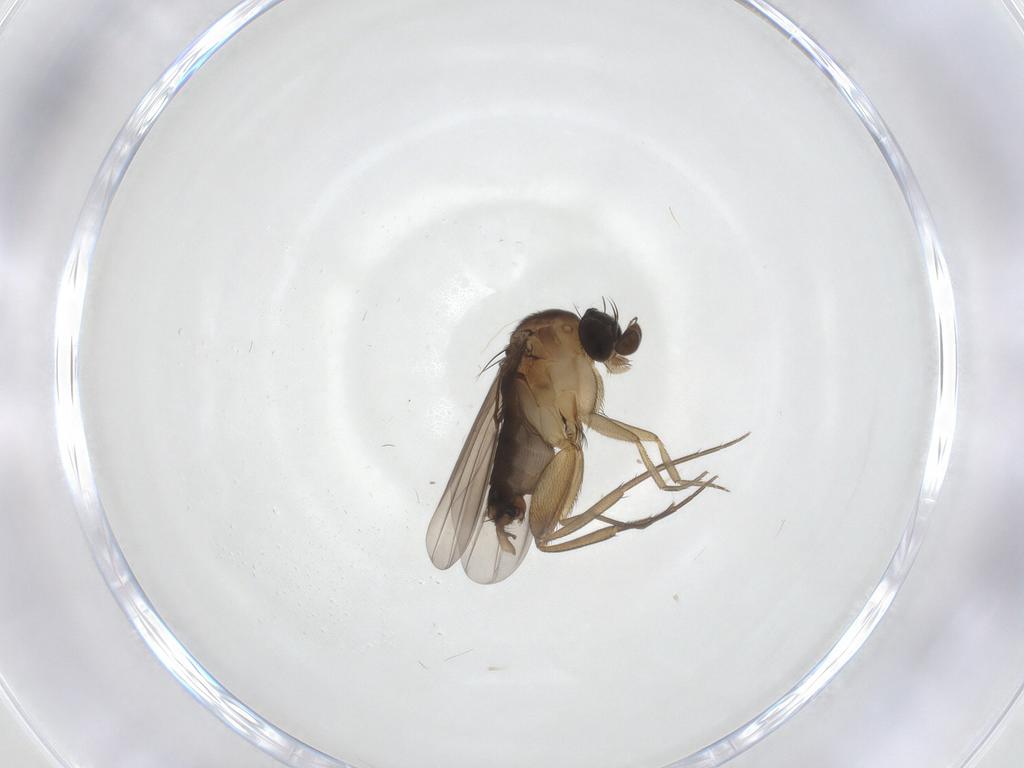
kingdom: Animalia
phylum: Arthropoda
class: Insecta
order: Diptera
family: Phoridae
